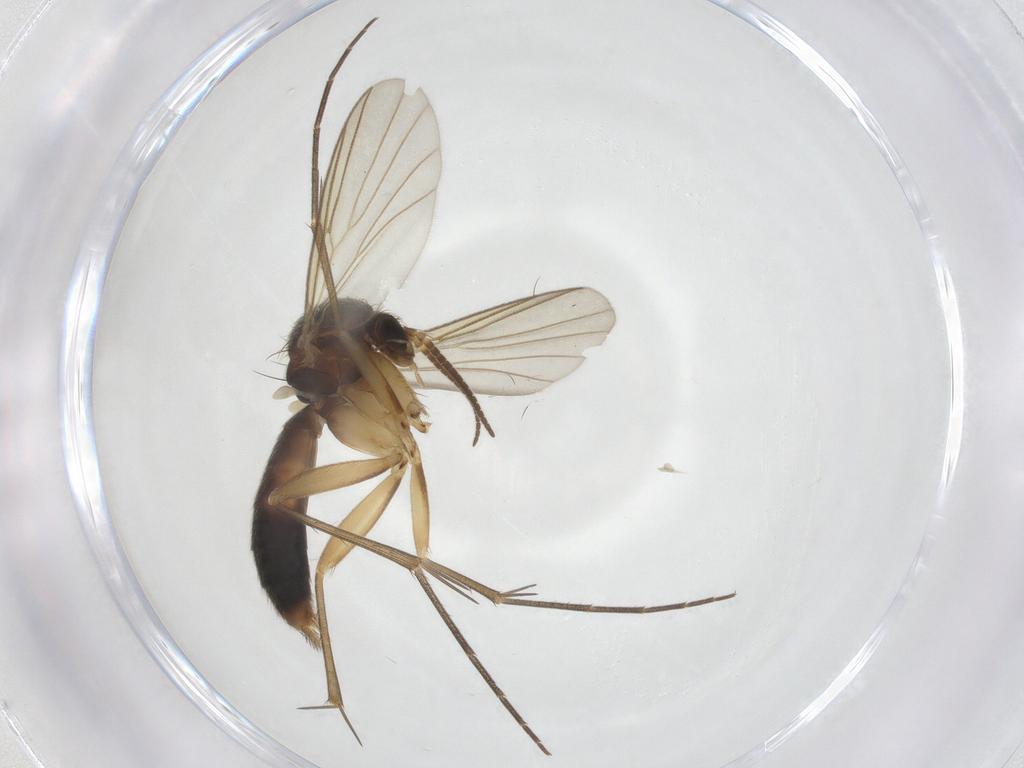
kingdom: Animalia
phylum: Arthropoda
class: Insecta
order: Diptera
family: Mycetophilidae
